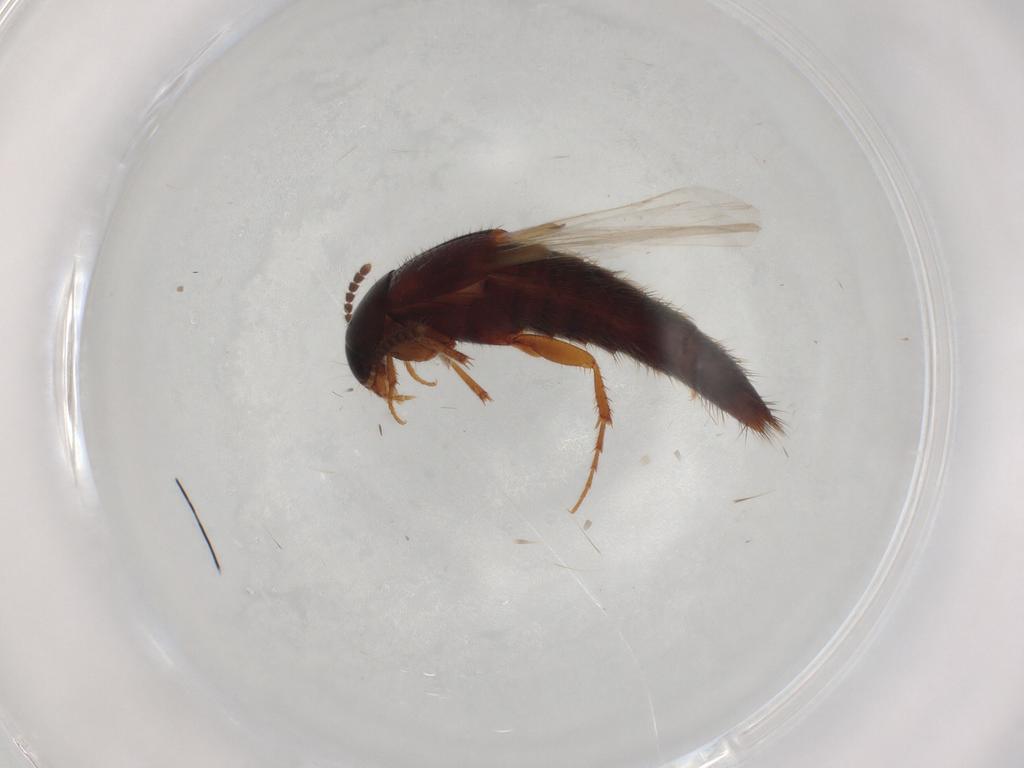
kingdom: Animalia
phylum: Arthropoda
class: Insecta
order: Coleoptera
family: Staphylinidae
